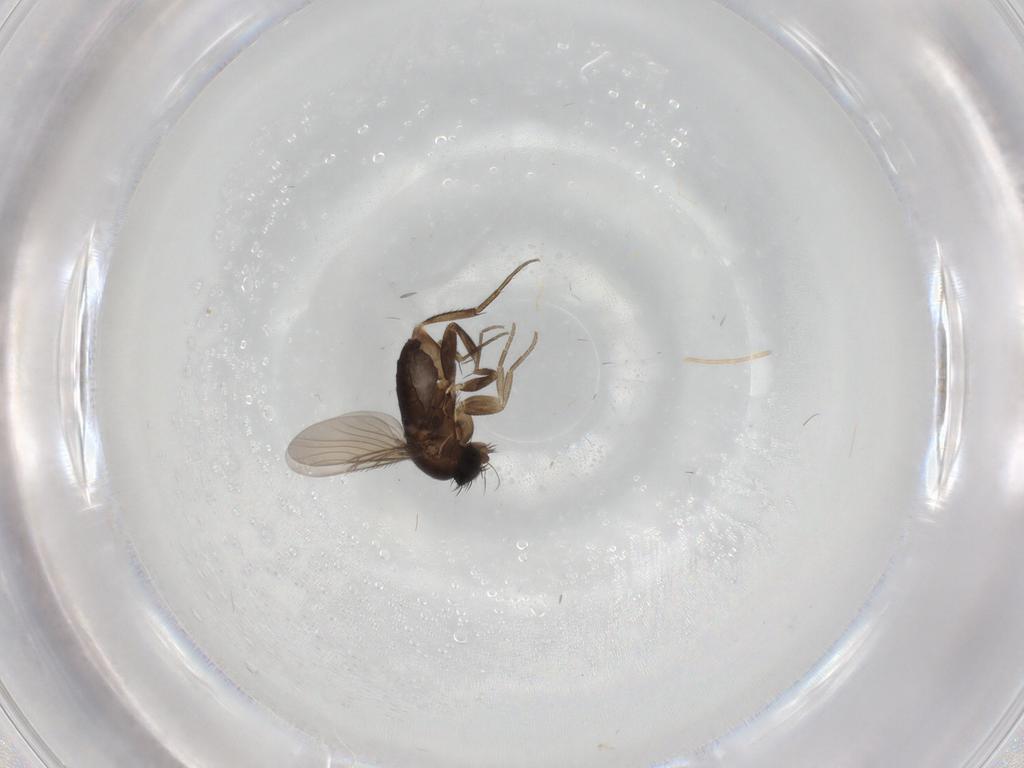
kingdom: Animalia
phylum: Arthropoda
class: Insecta
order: Diptera
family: Phoridae
